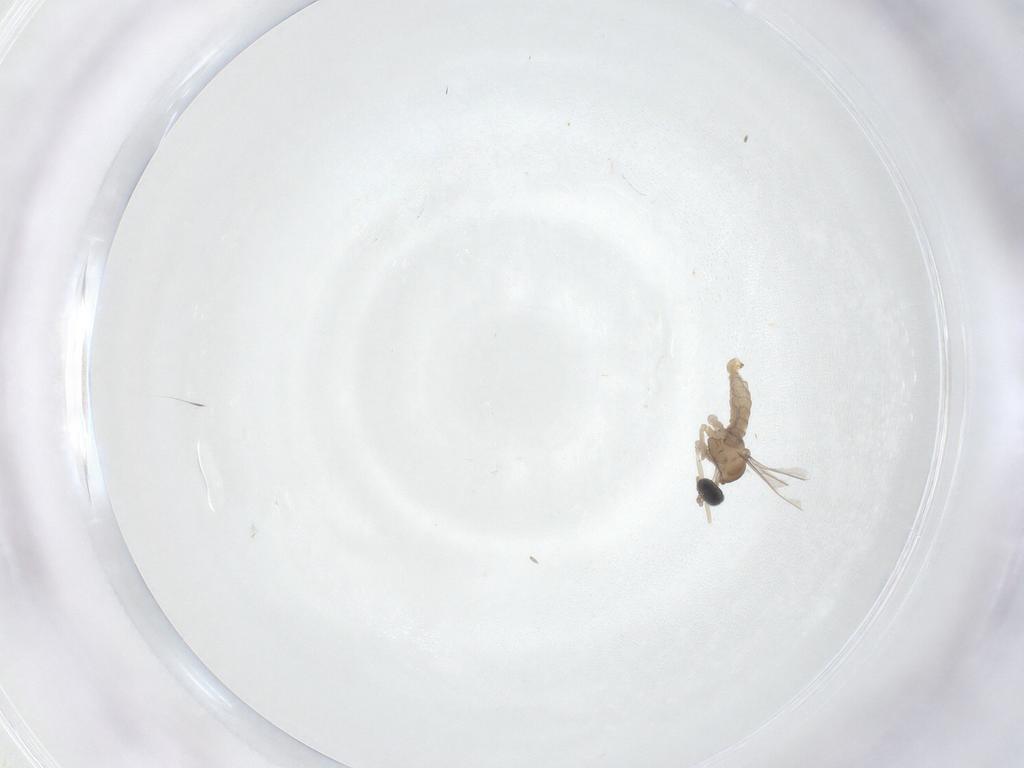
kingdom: Animalia
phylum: Arthropoda
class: Insecta
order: Diptera
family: Cecidomyiidae
